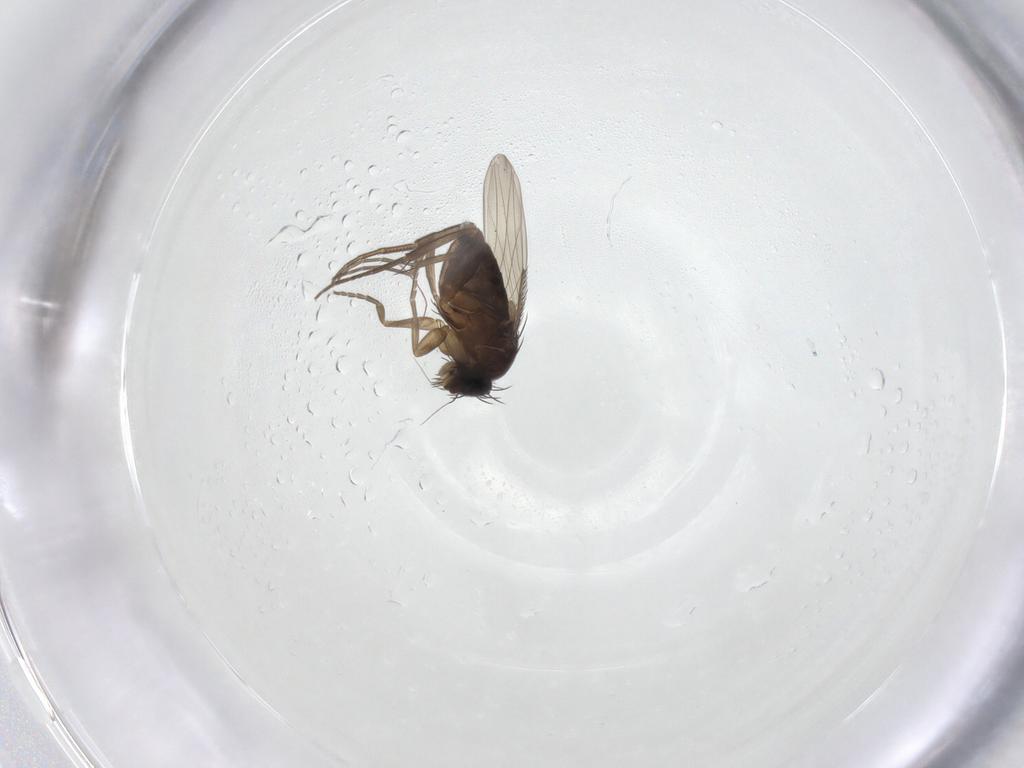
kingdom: Animalia
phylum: Arthropoda
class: Insecta
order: Diptera
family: Phoridae
